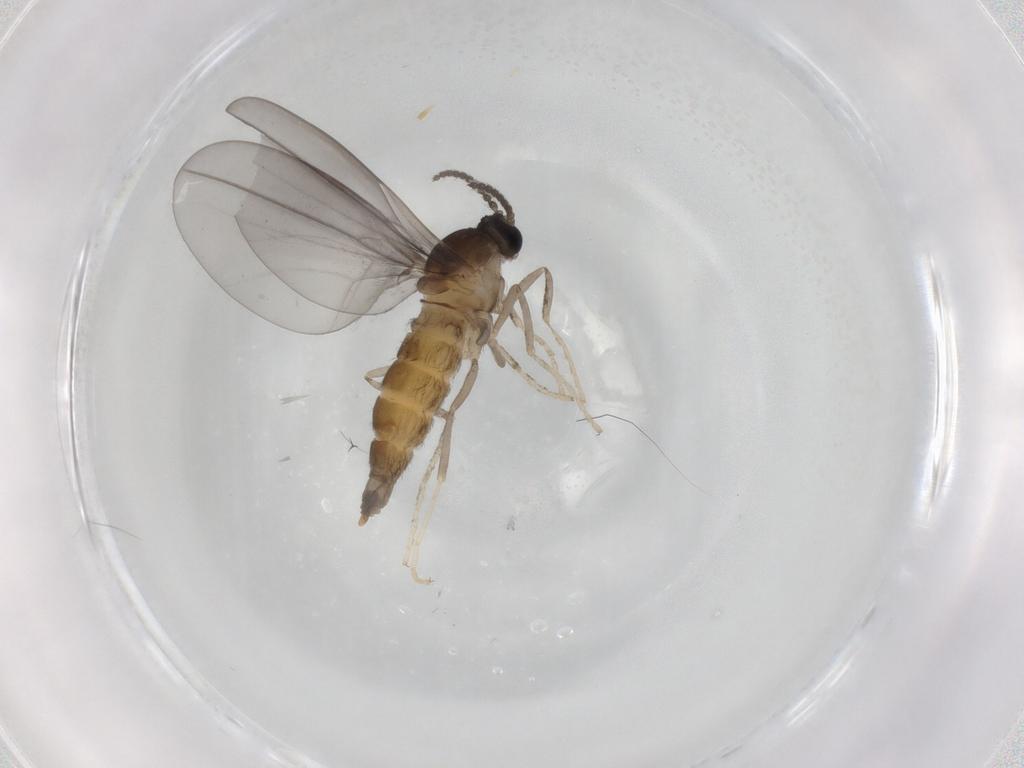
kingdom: Animalia
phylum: Arthropoda
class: Insecta
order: Diptera
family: Cecidomyiidae
